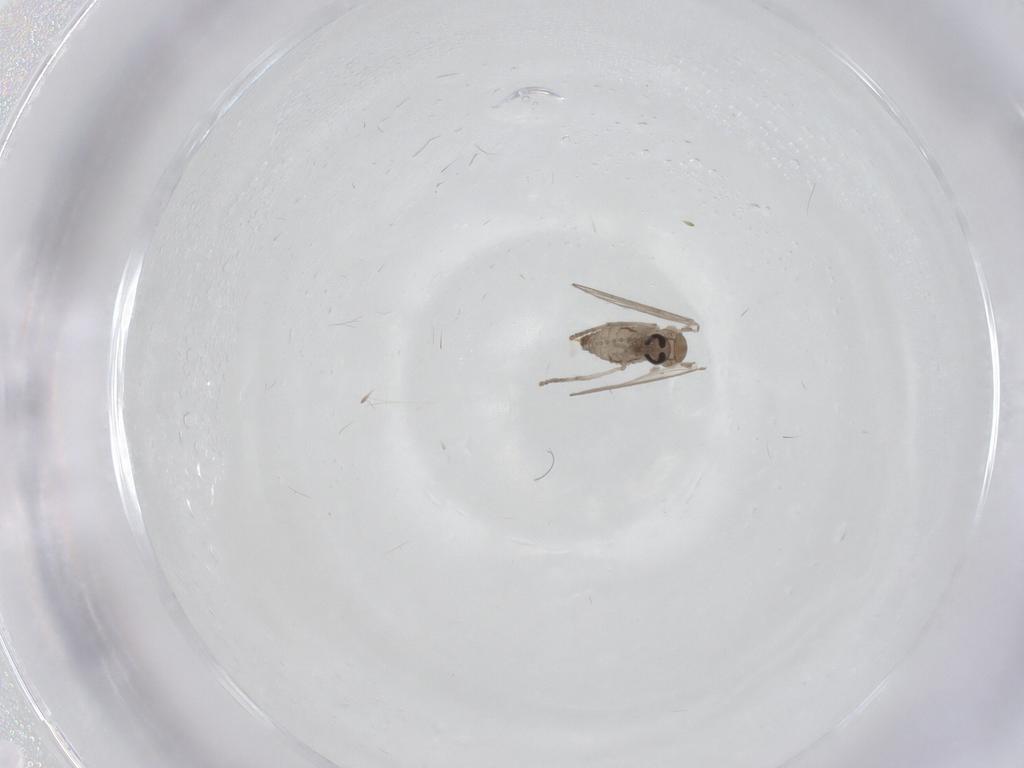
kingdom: Animalia
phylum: Arthropoda
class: Insecta
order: Diptera
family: Psychodidae
